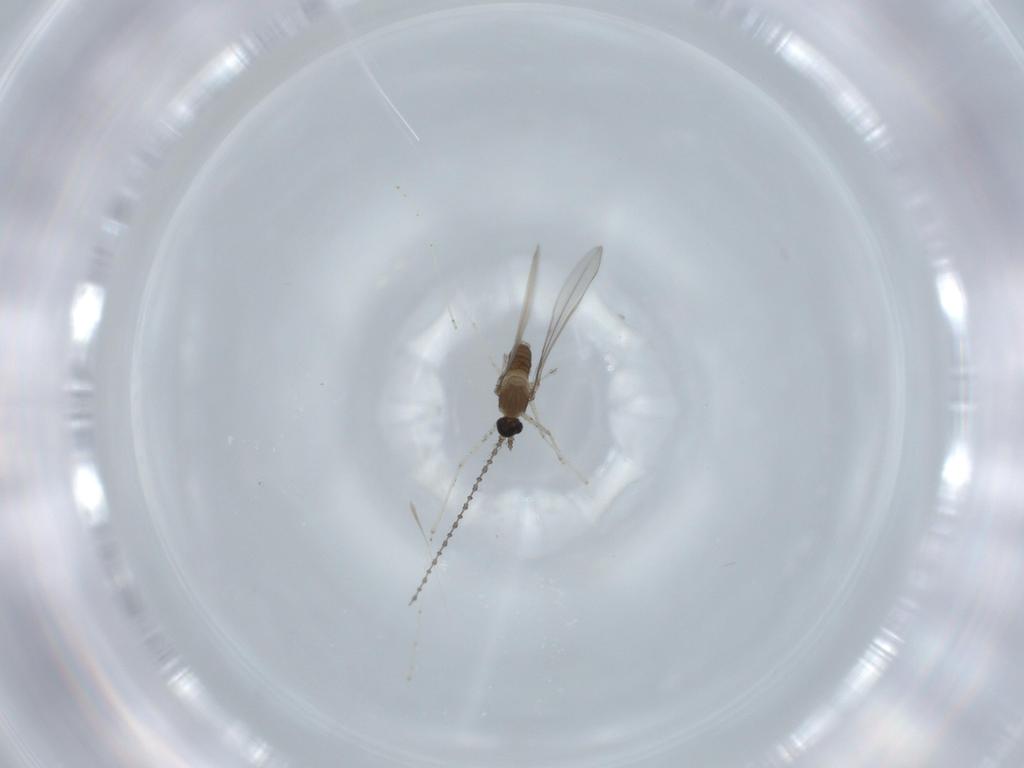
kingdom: Animalia
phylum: Arthropoda
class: Insecta
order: Diptera
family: Cecidomyiidae
